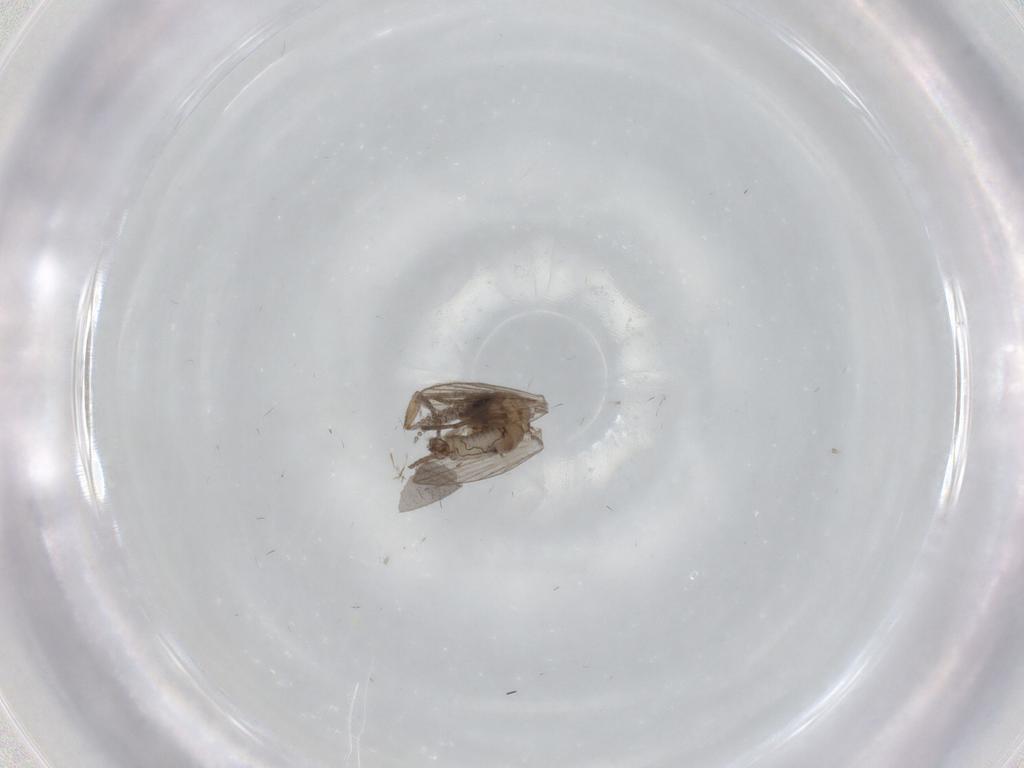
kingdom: Animalia
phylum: Arthropoda
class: Insecta
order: Diptera
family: Psychodidae
